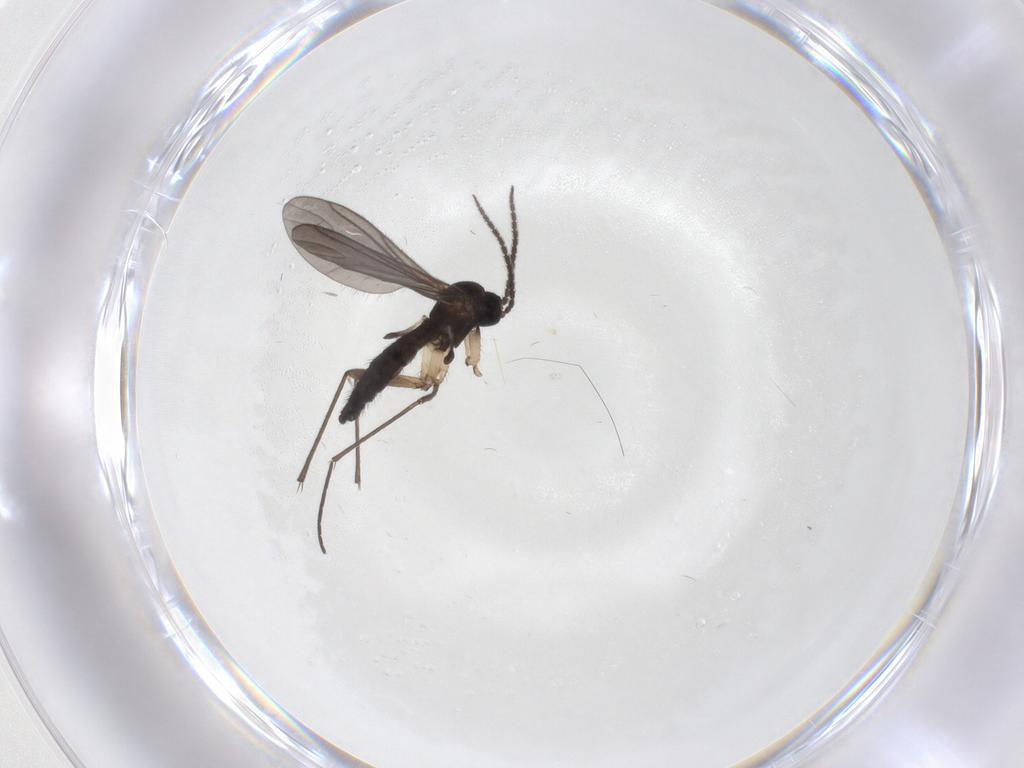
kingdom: Animalia
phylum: Arthropoda
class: Insecta
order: Diptera
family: Sciaridae
